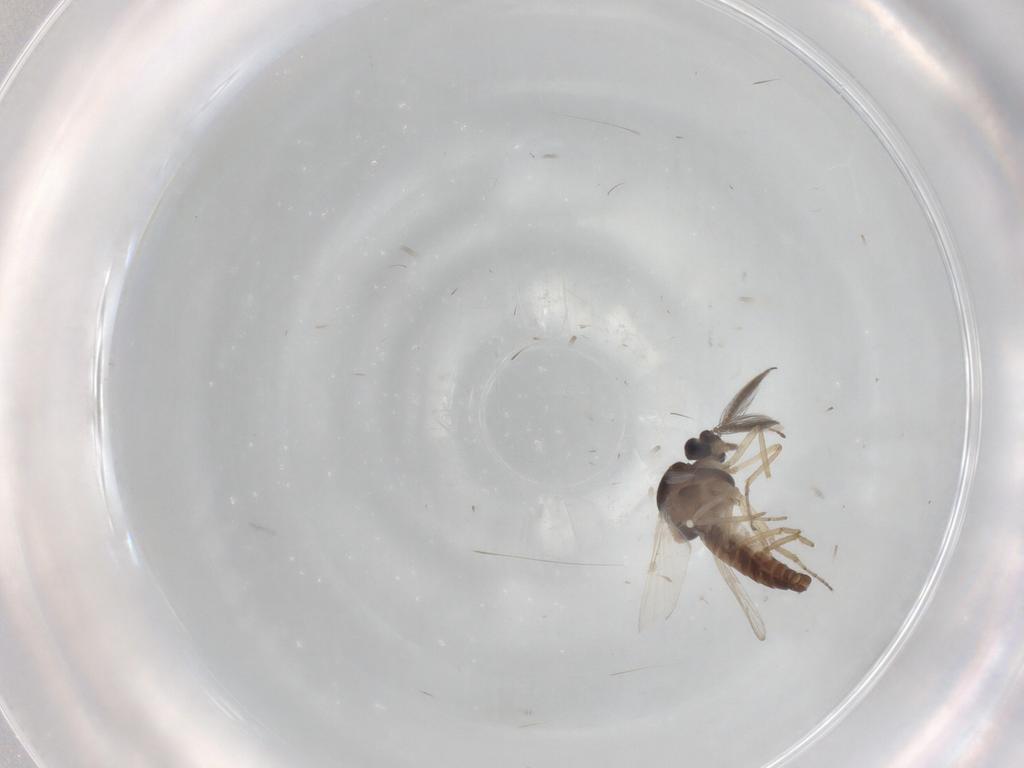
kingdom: Animalia
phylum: Arthropoda
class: Insecta
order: Diptera
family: Ceratopogonidae
